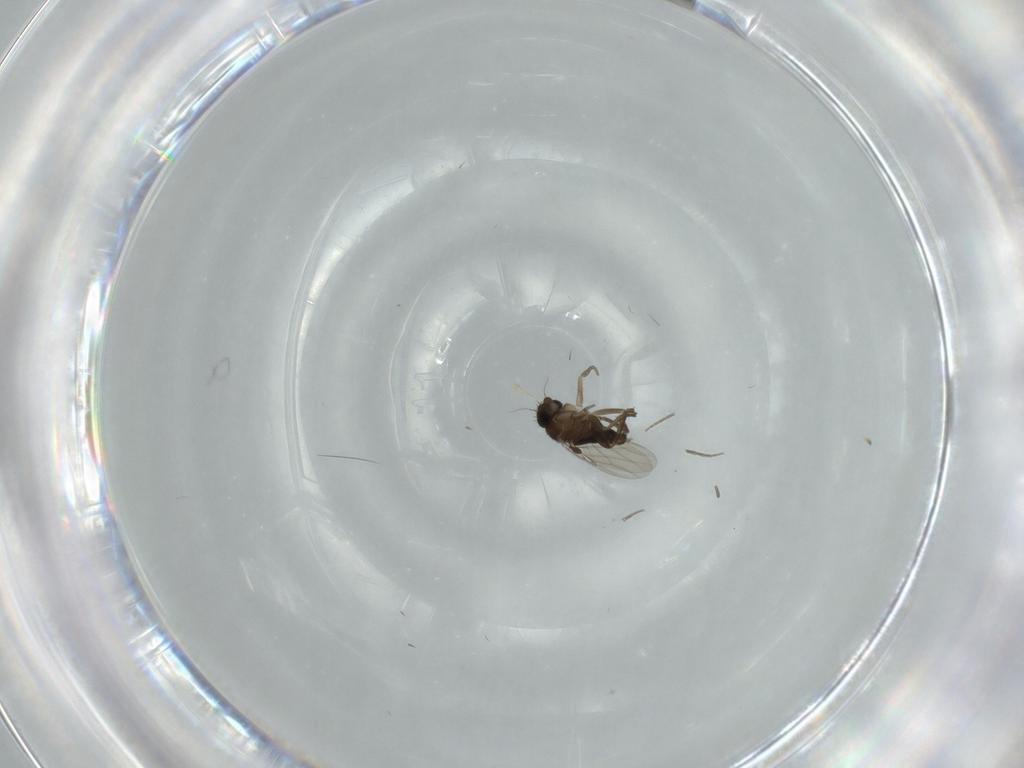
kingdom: Animalia
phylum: Arthropoda
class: Insecta
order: Diptera
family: Phoridae
